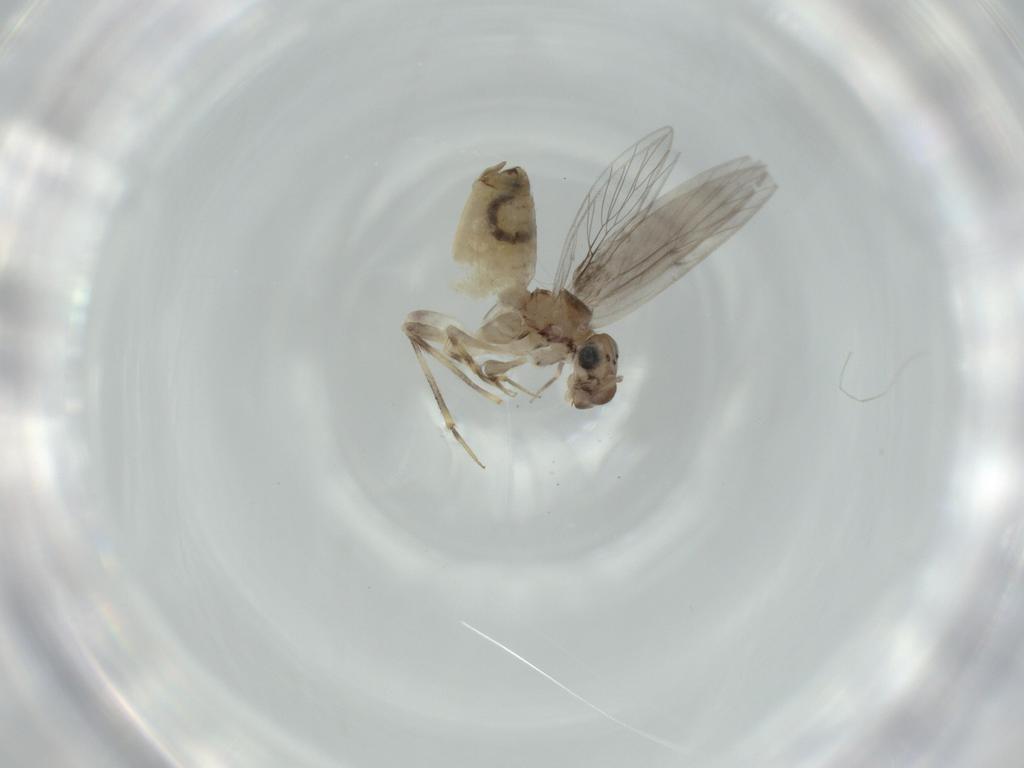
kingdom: Animalia
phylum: Arthropoda
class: Insecta
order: Psocodea
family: Lepidopsocidae
